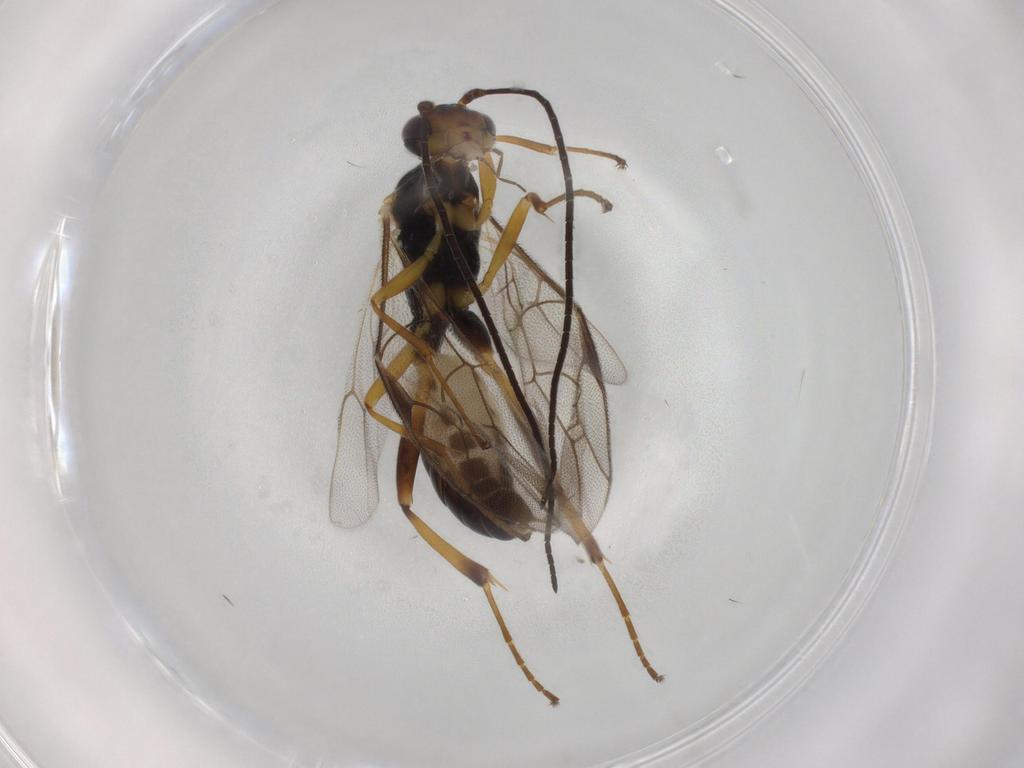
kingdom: Animalia
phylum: Arthropoda
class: Insecta
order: Hymenoptera
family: Ichneumonidae
